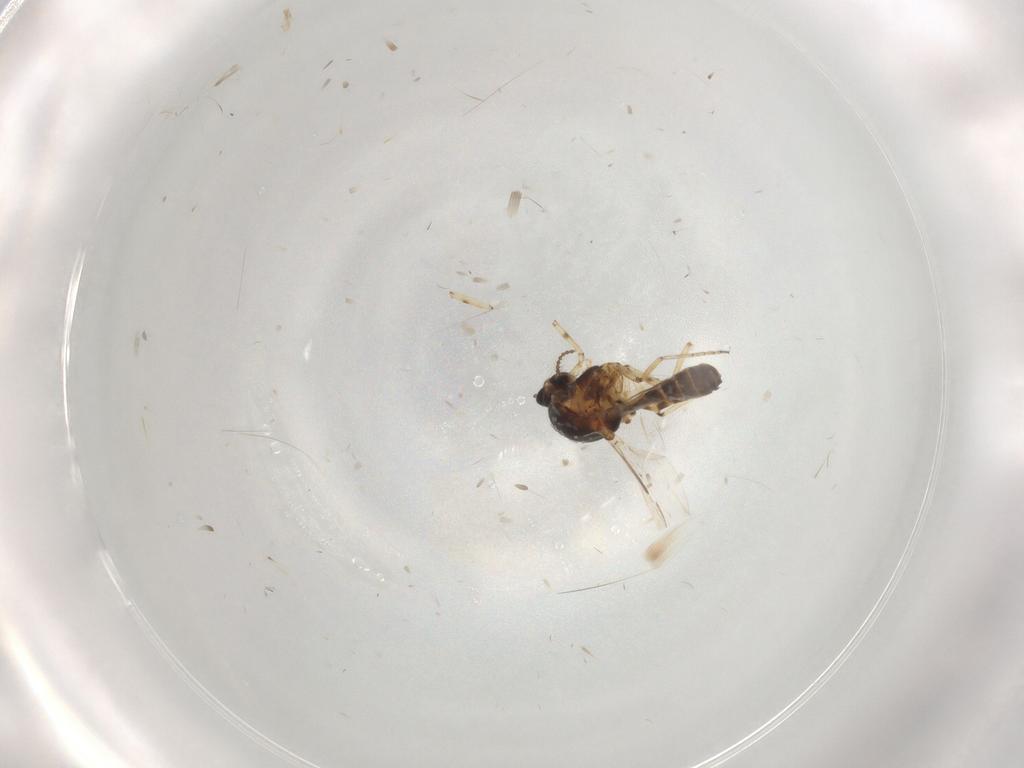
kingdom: Animalia
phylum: Arthropoda
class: Insecta
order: Diptera
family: Ceratopogonidae
